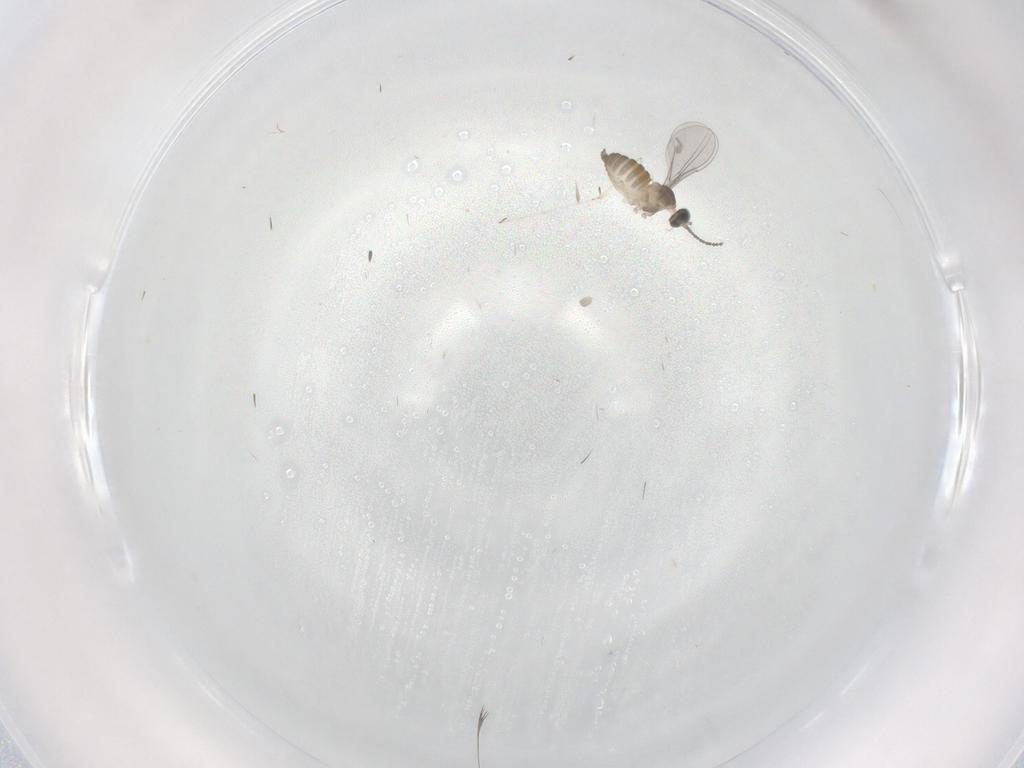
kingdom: Animalia
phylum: Arthropoda
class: Insecta
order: Diptera
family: Cecidomyiidae
